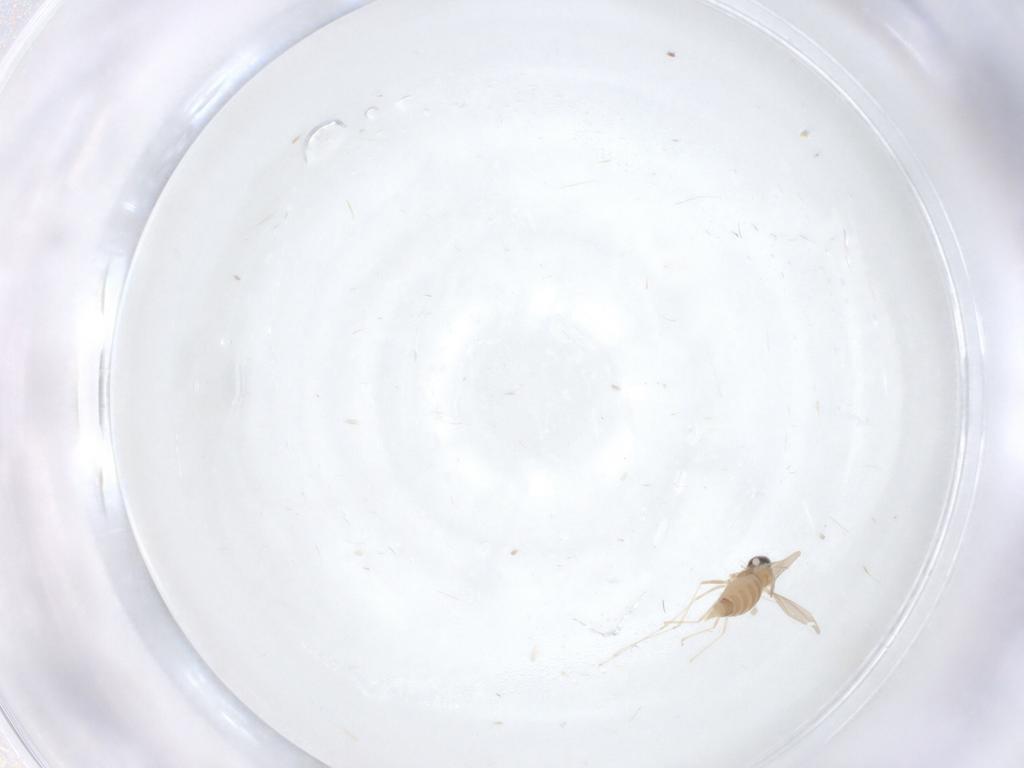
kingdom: Animalia
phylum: Arthropoda
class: Insecta
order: Diptera
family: Cecidomyiidae
